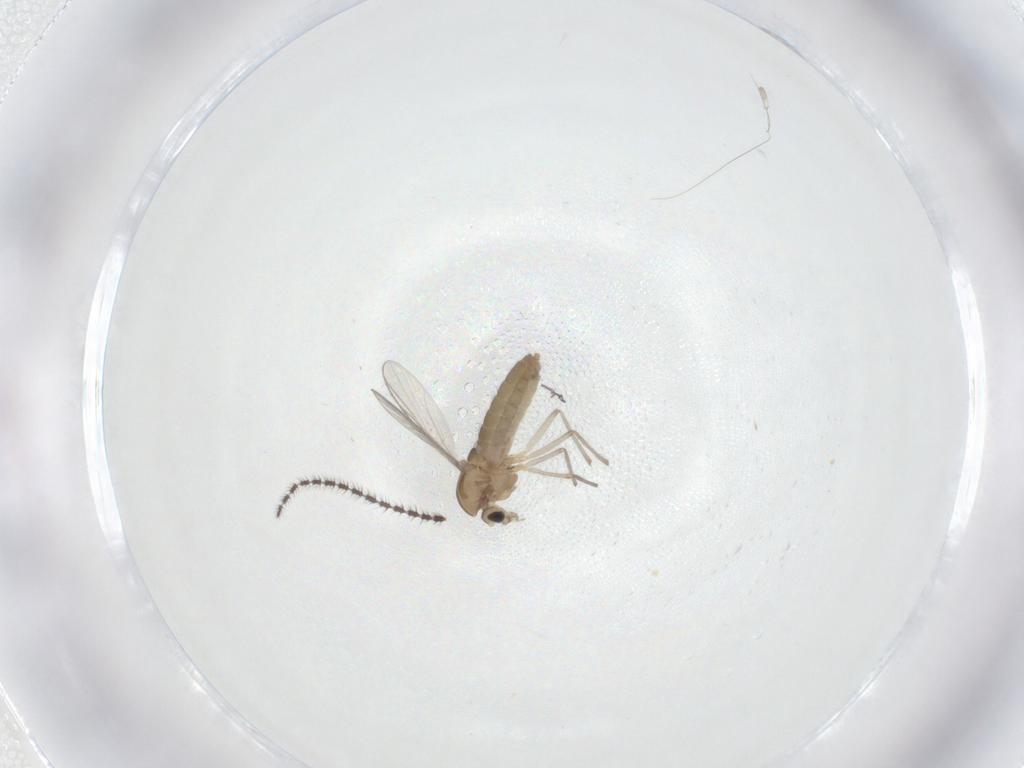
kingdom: Animalia
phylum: Arthropoda
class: Insecta
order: Diptera
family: Chironomidae
